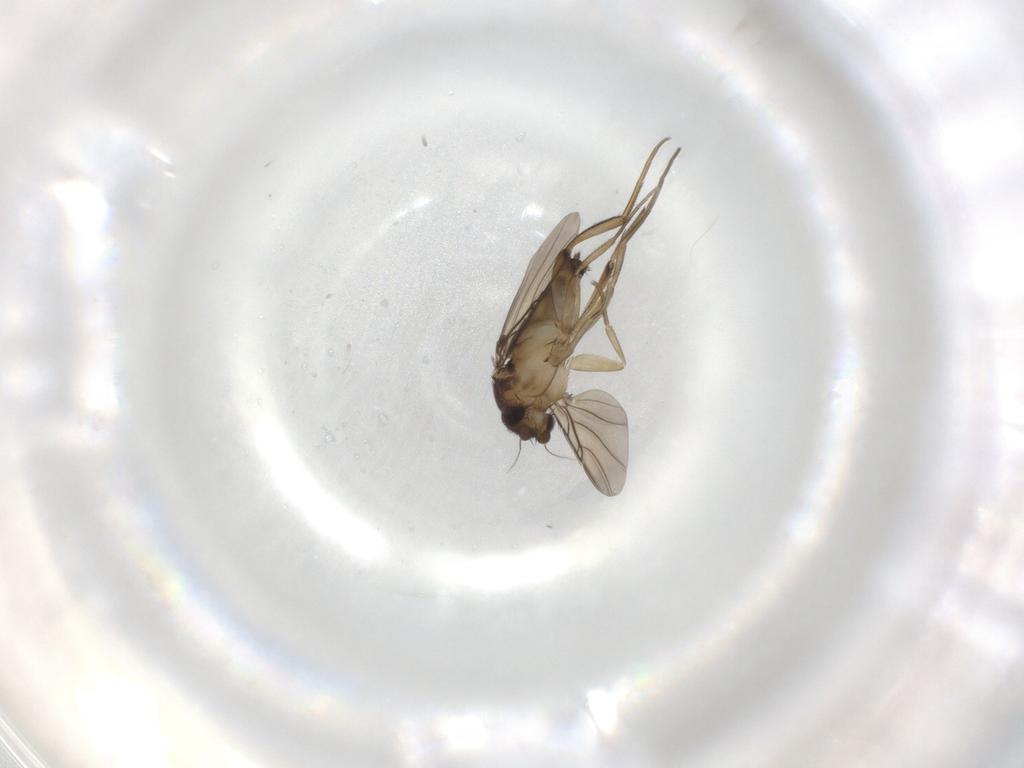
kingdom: Animalia
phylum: Arthropoda
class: Insecta
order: Diptera
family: Phoridae
